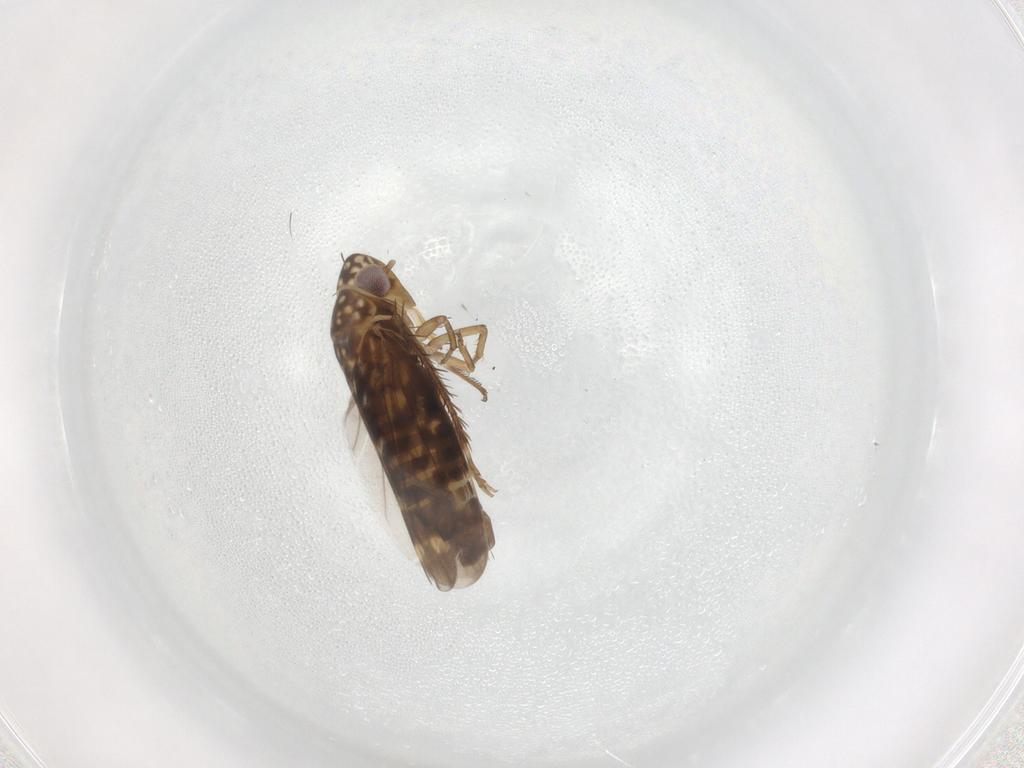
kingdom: Animalia
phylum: Arthropoda
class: Insecta
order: Hemiptera
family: Cicadellidae
